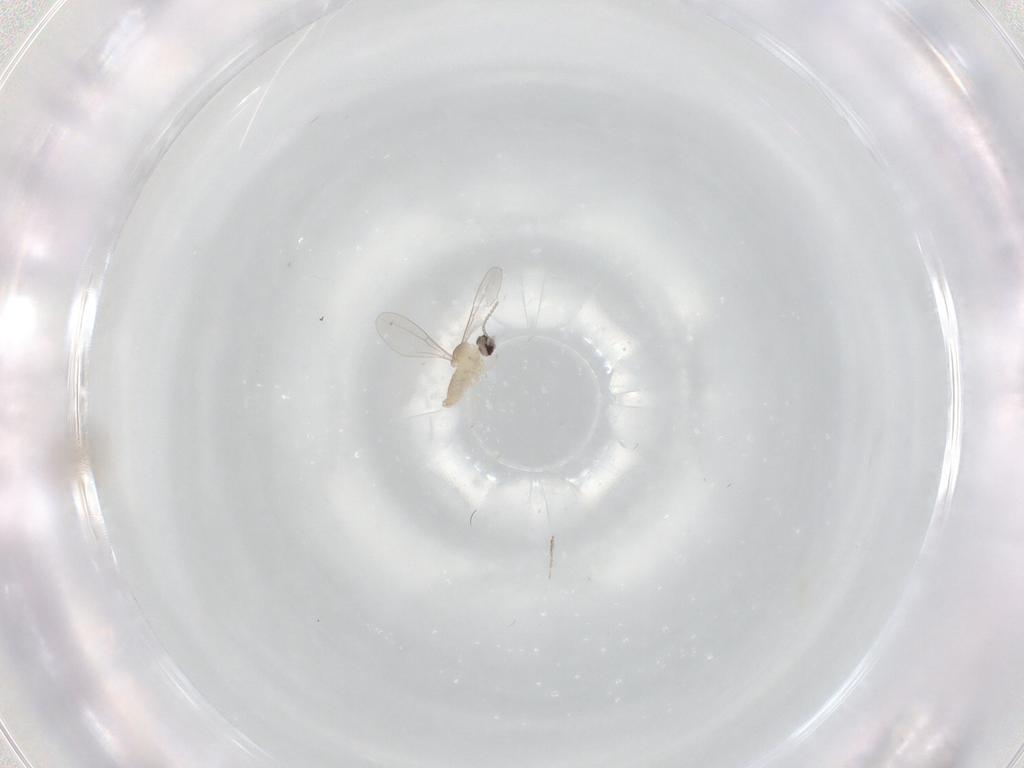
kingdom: Animalia
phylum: Arthropoda
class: Insecta
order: Diptera
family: Cecidomyiidae
